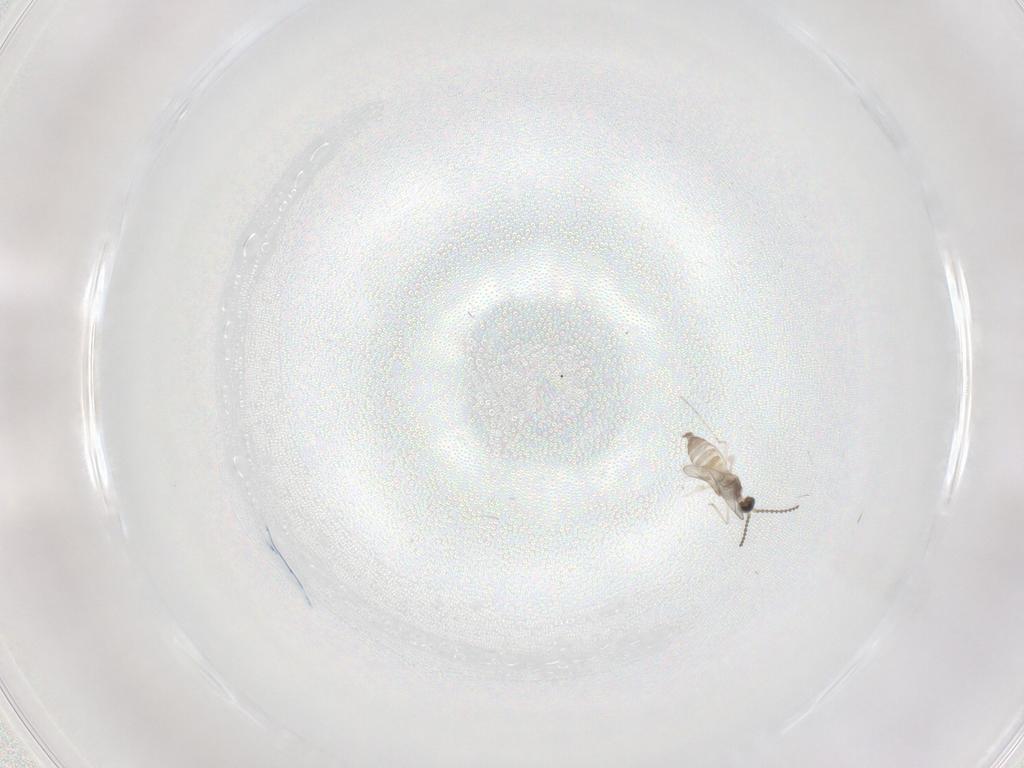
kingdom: Animalia
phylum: Arthropoda
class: Insecta
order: Diptera
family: Cecidomyiidae
